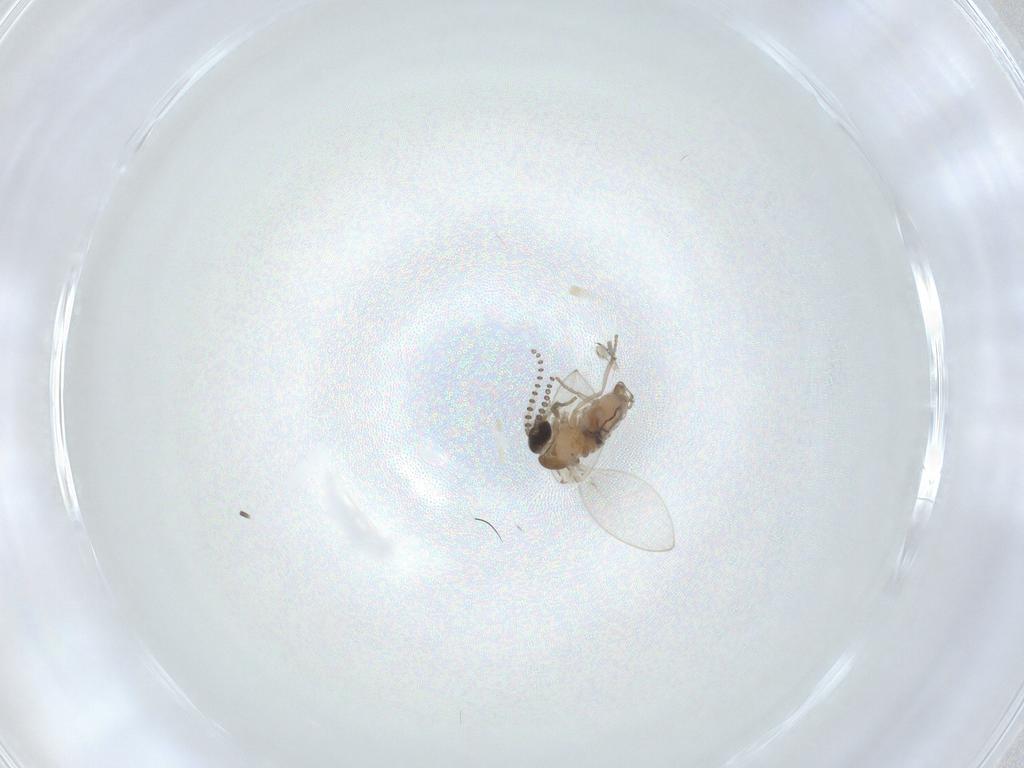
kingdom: Animalia
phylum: Arthropoda
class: Insecta
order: Diptera
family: Psychodidae
